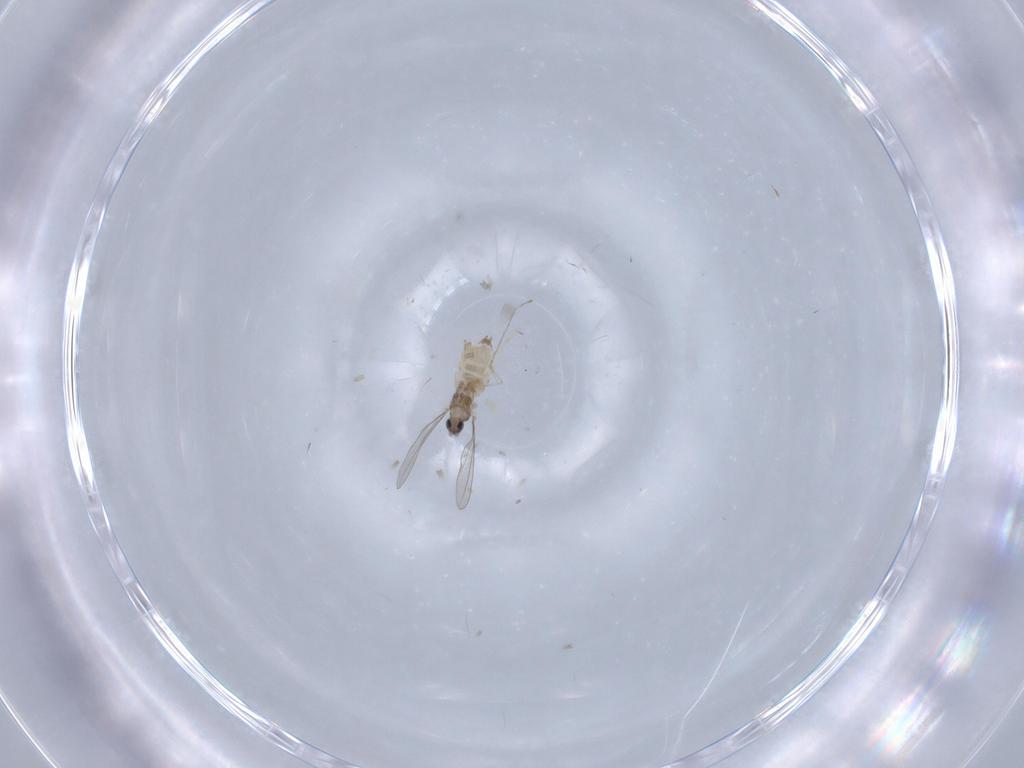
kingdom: Animalia
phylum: Arthropoda
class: Insecta
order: Diptera
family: Cecidomyiidae
